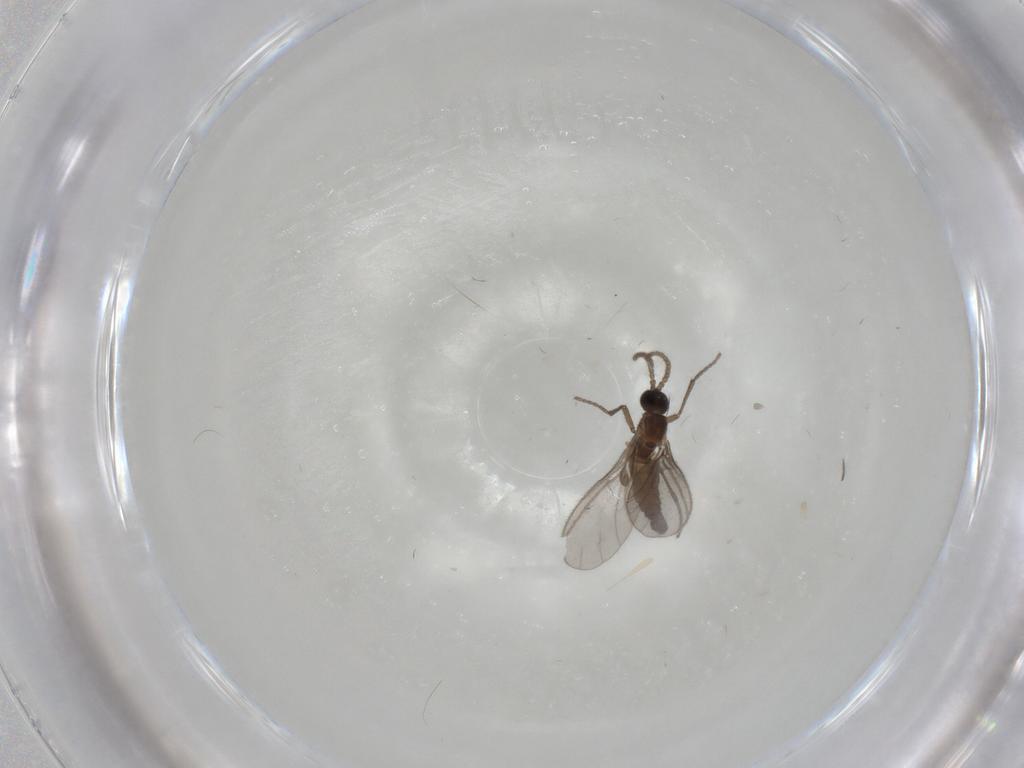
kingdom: Animalia
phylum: Arthropoda
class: Insecta
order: Diptera
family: Sciaridae
